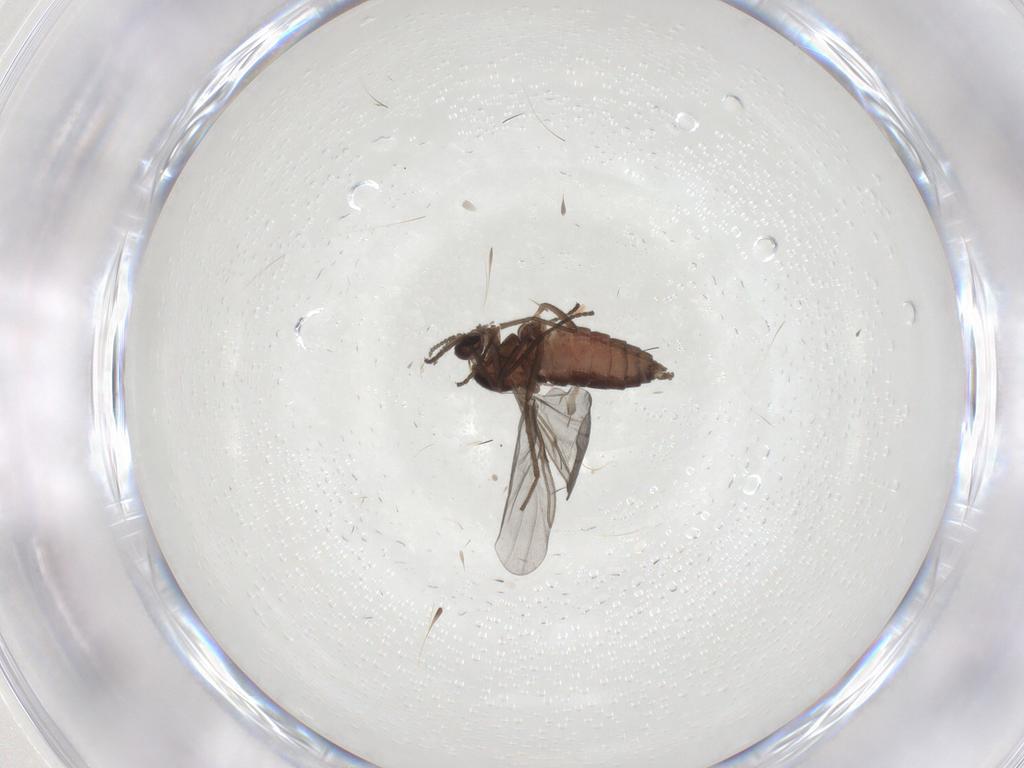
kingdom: Animalia
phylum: Arthropoda
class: Insecta
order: Diptera
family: Cecidomyiidae
